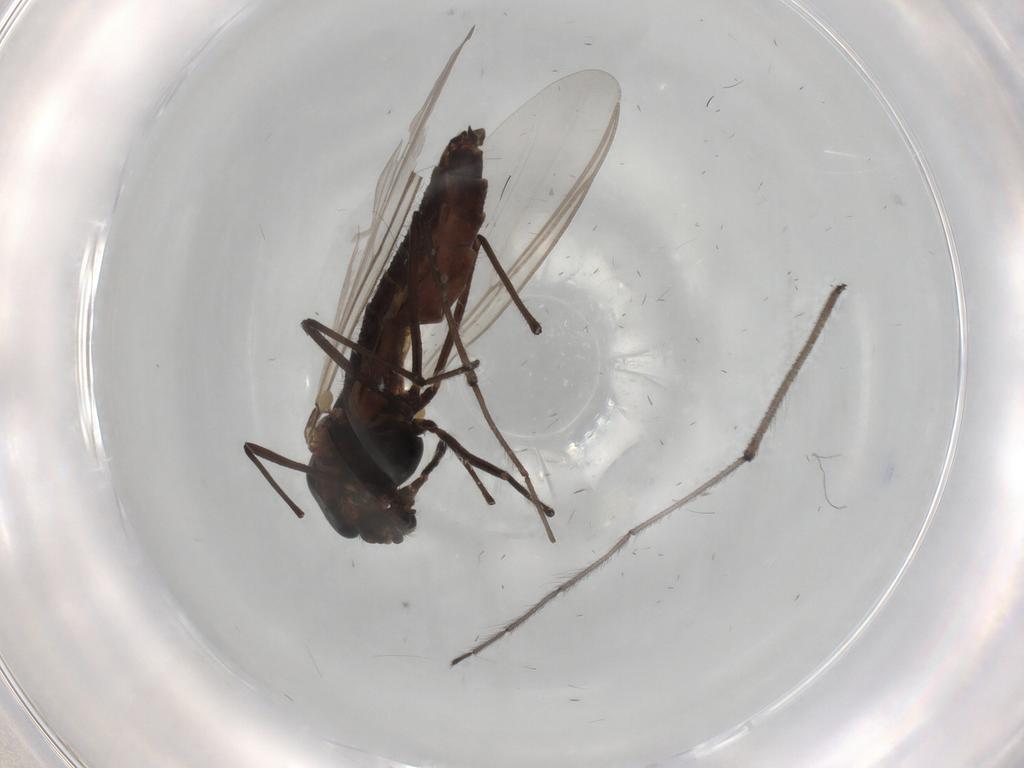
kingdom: Animalia
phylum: Arthropoda
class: Insecta
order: Diptera
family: Chironomidae
